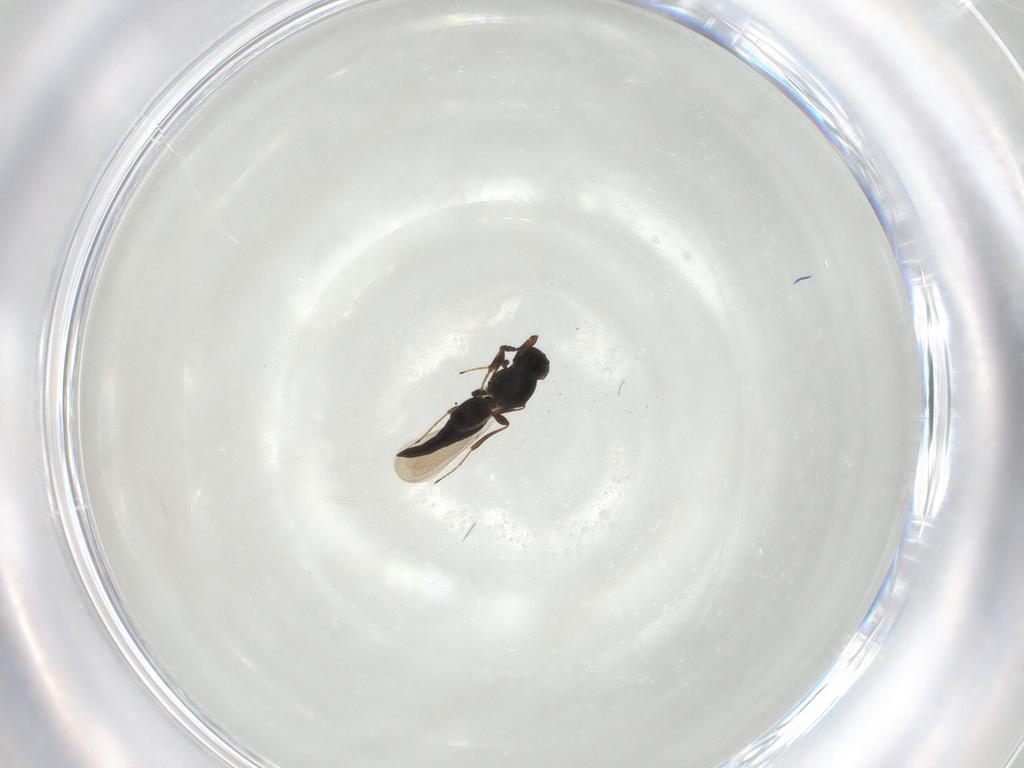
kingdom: Animalia
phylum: Arthropoda
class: Insecta
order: Hymenoptera
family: Platygastridae
